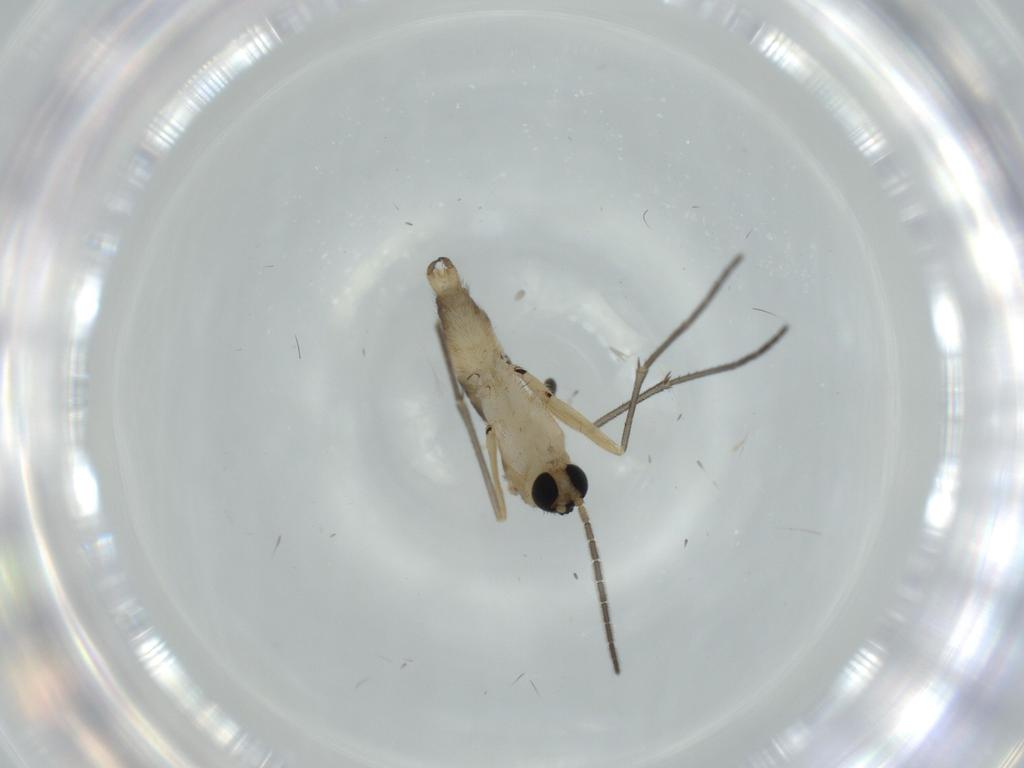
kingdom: Animalia
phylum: Arthropoda
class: Insecta
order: Diptera
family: Sciaridae
